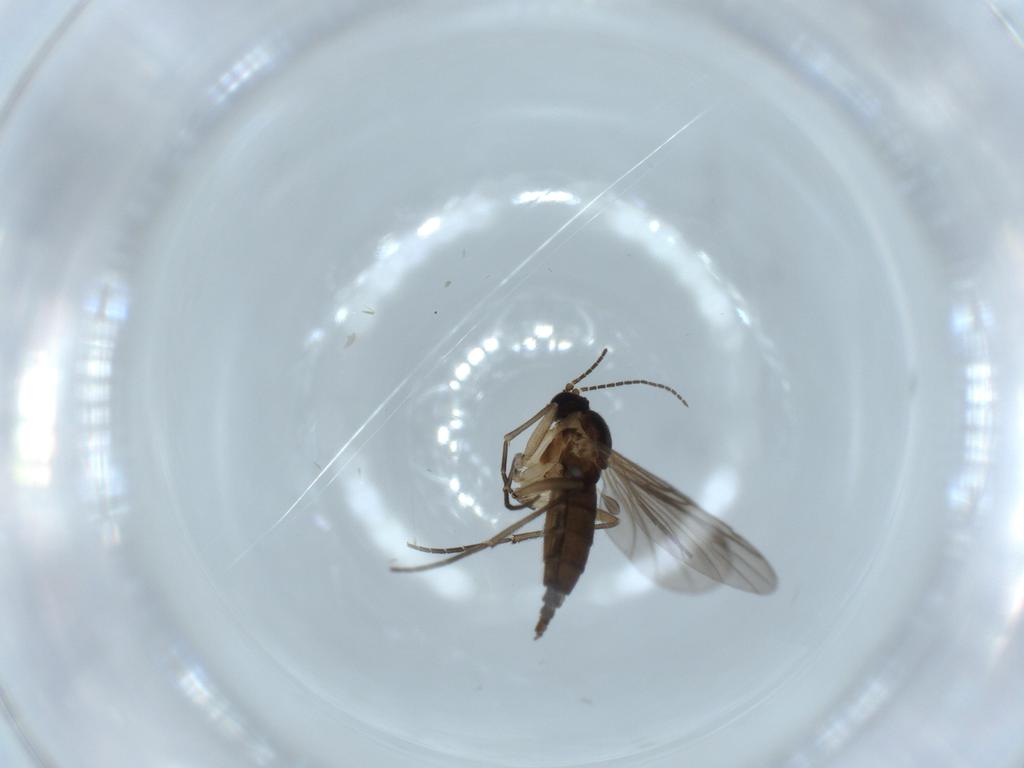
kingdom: Animalia
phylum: Arthropoda
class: Insecta
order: Diptera
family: Sciaridae
